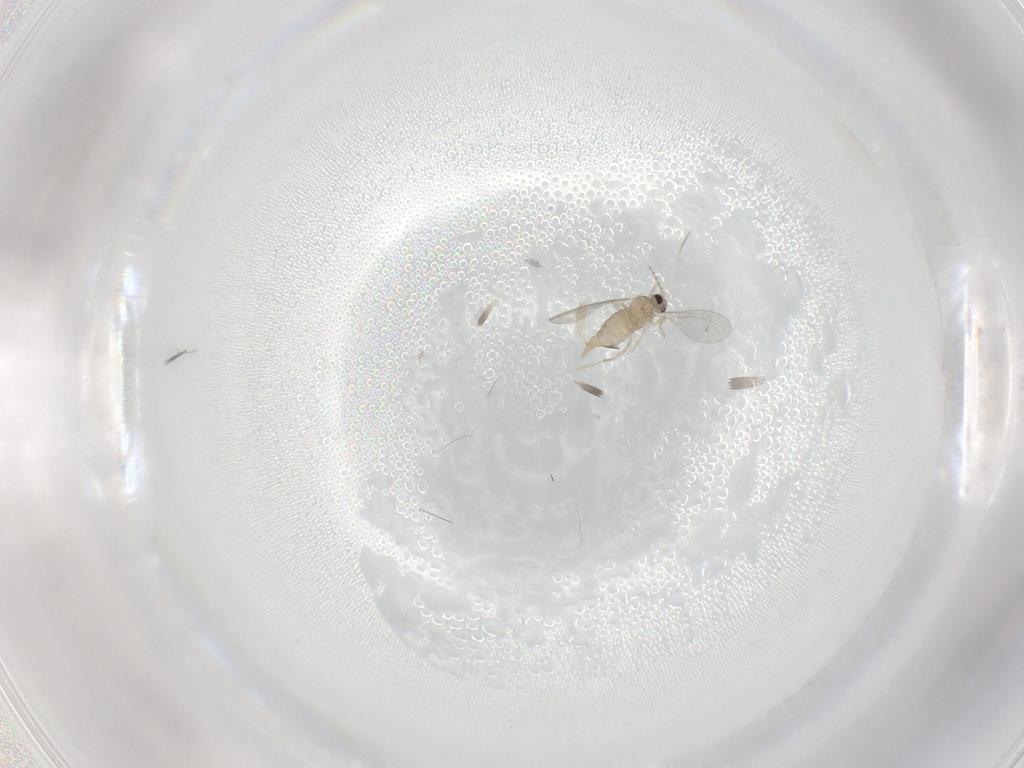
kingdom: Animalia
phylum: Arthropoda
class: Insecta
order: Diptera
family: Cecidomyiidae
